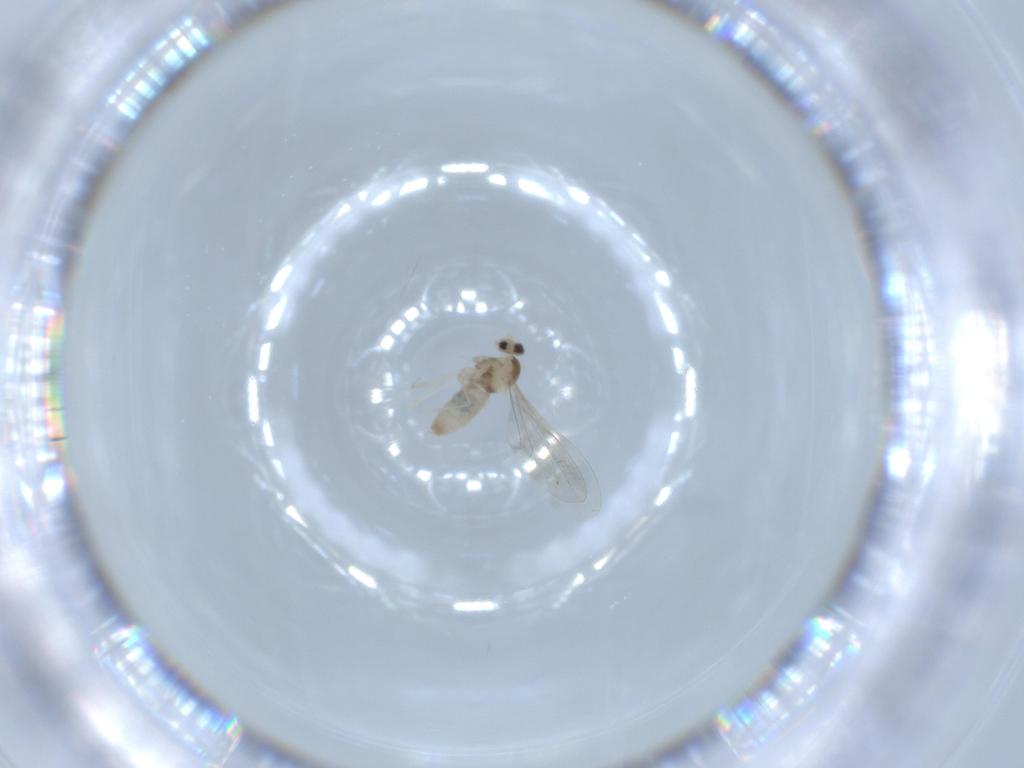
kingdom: Animalia
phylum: Arthropoda
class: Insecta
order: Diptera
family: Cecidomyiidae
